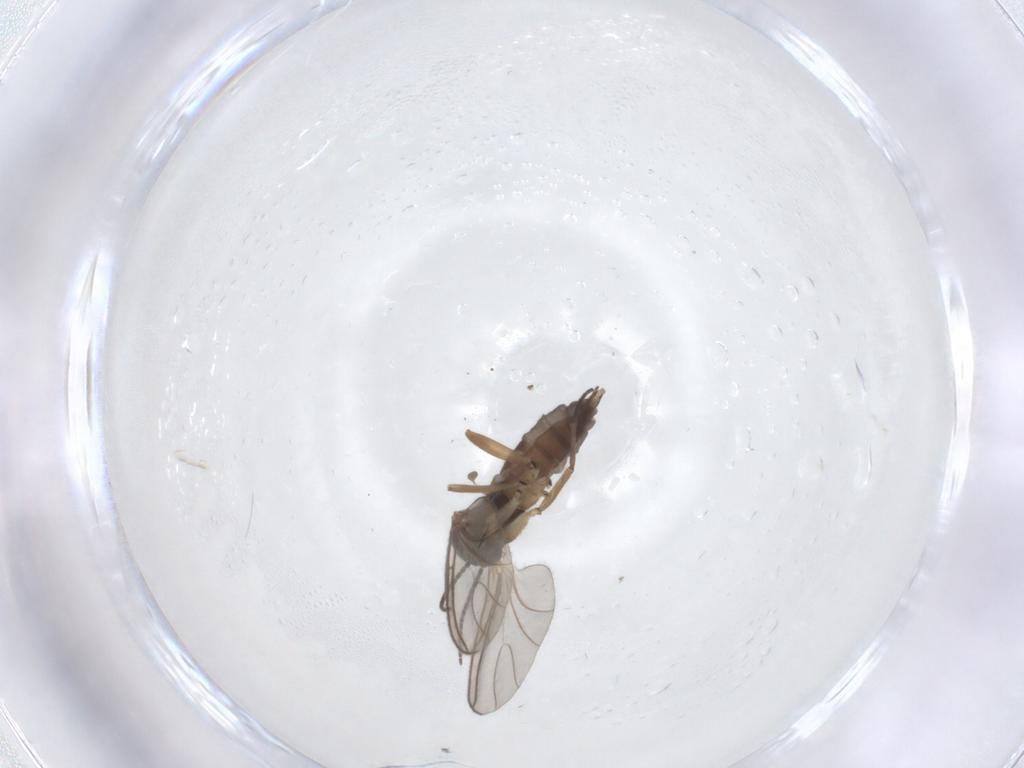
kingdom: Animalia
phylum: Arthropoda
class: Insecta
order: Diptera
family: Sciaridae
